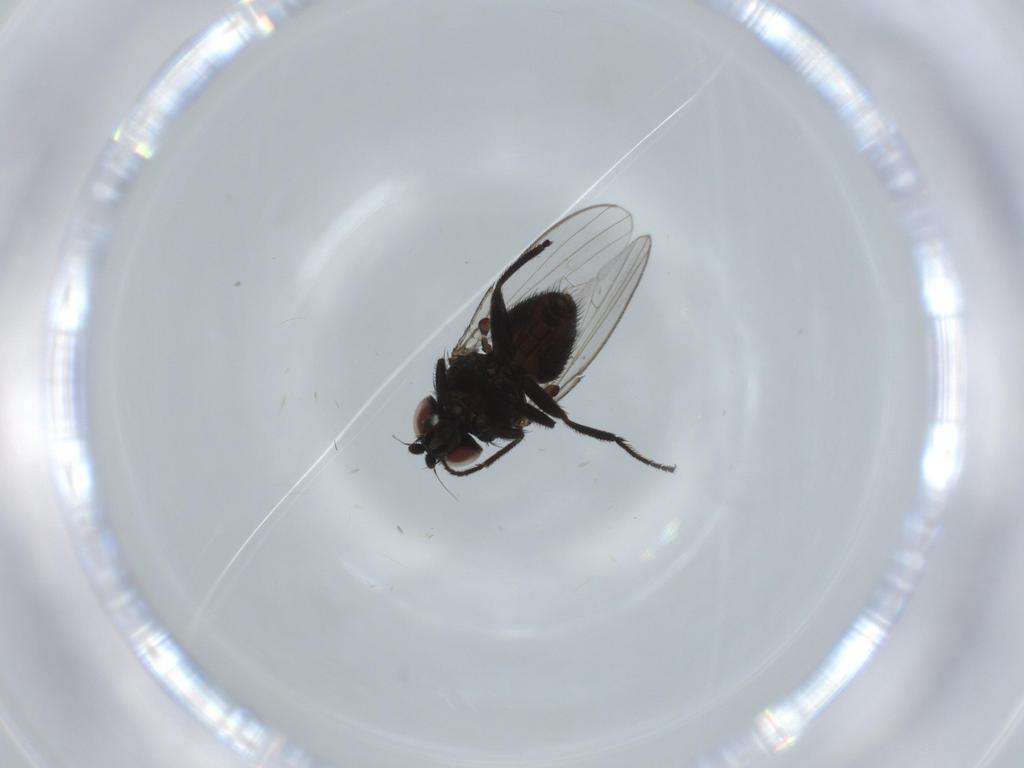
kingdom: Animalia
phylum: Arthropoda
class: Insecta
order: Diptera
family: Milichiidae
